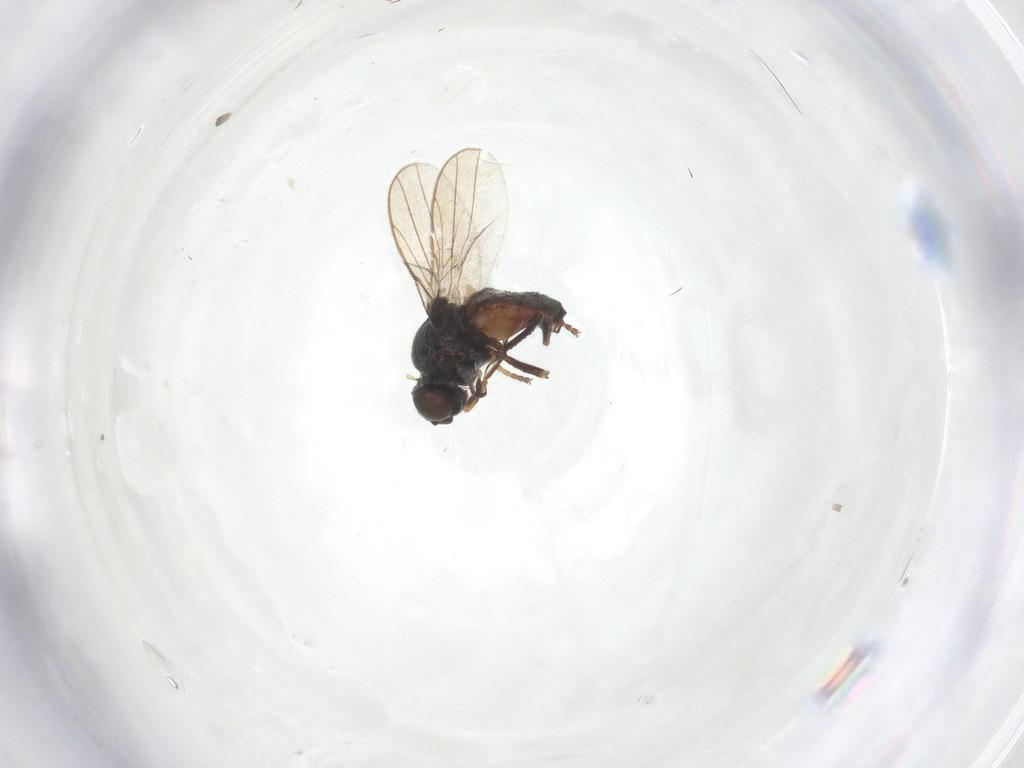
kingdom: Animalia
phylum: Arthropoda
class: Insecta
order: Diptera
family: Chloropidae
